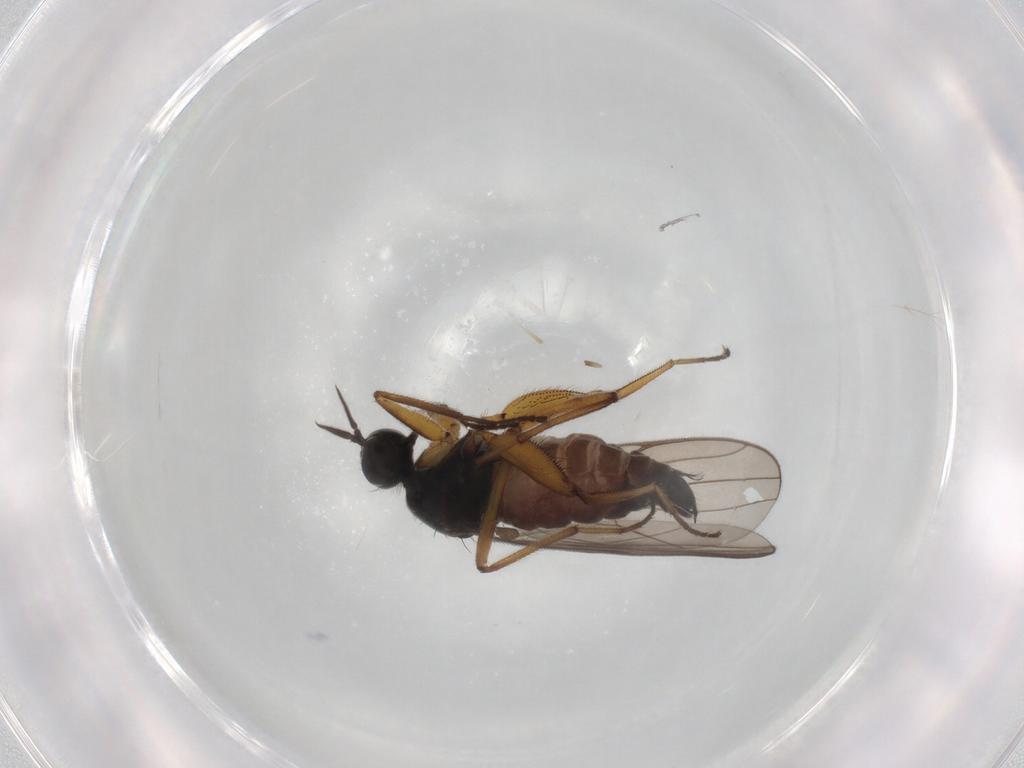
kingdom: Animalia
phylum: Arthropoda
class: Insecta
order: Diptera
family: Hybotidae
